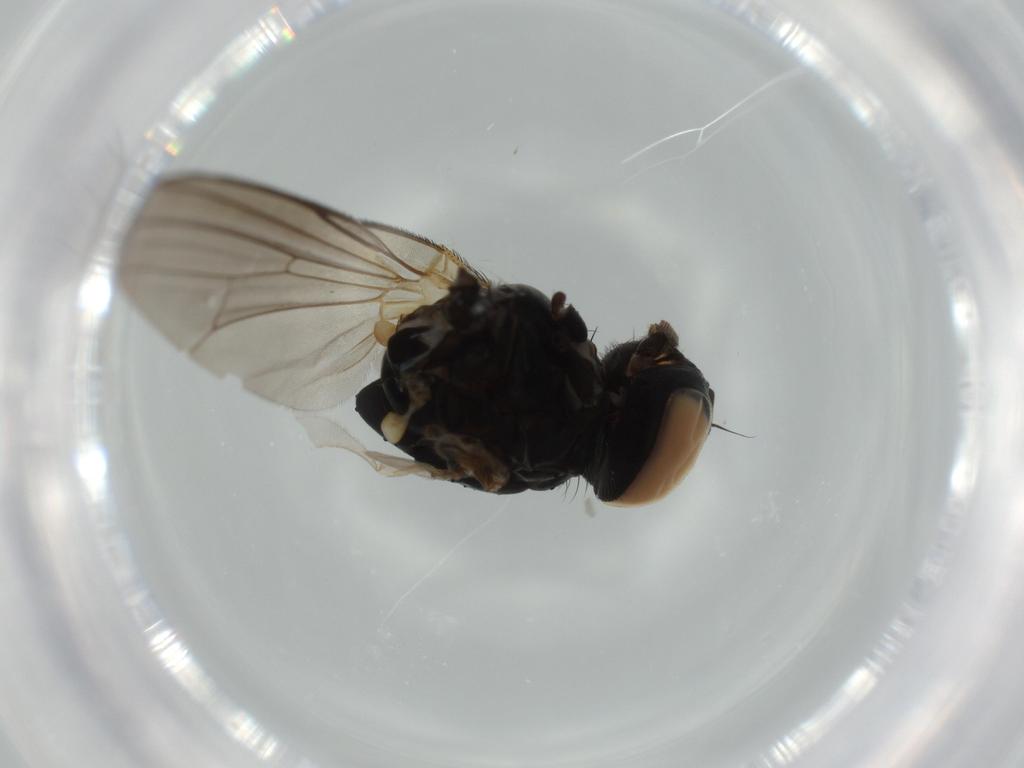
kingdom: Animalia
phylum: Arthropoda
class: Insecta
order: Diptera
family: Fannia
